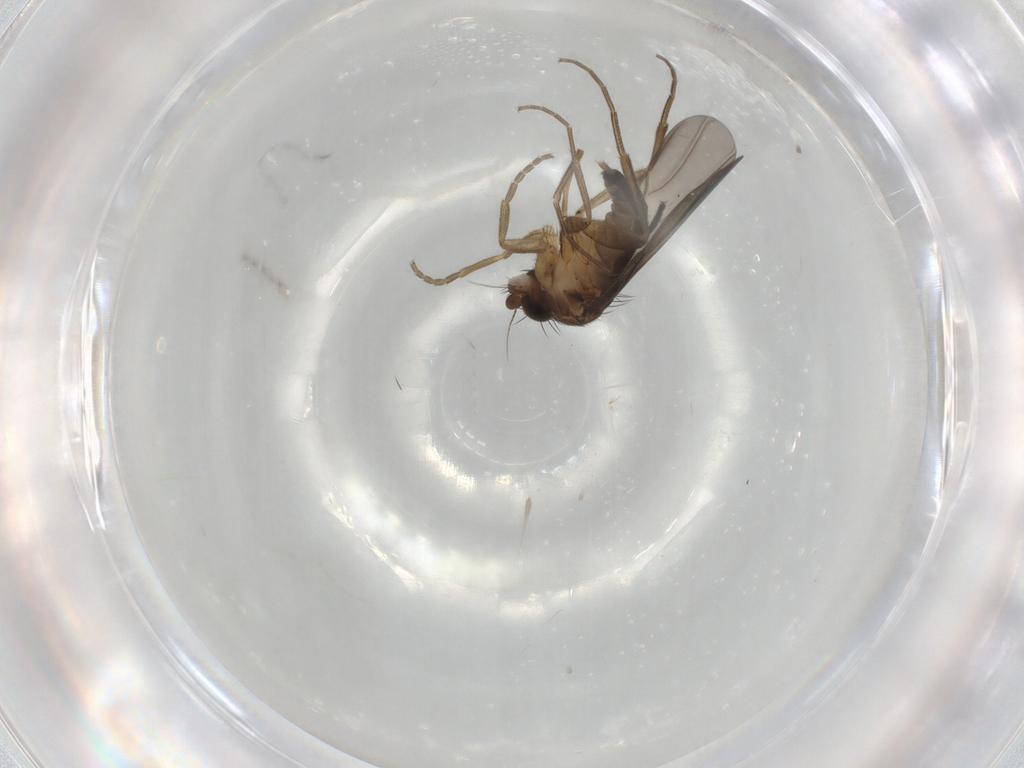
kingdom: Animalia
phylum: Arthropoda
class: Insecta
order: Diptera
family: Phoridae
